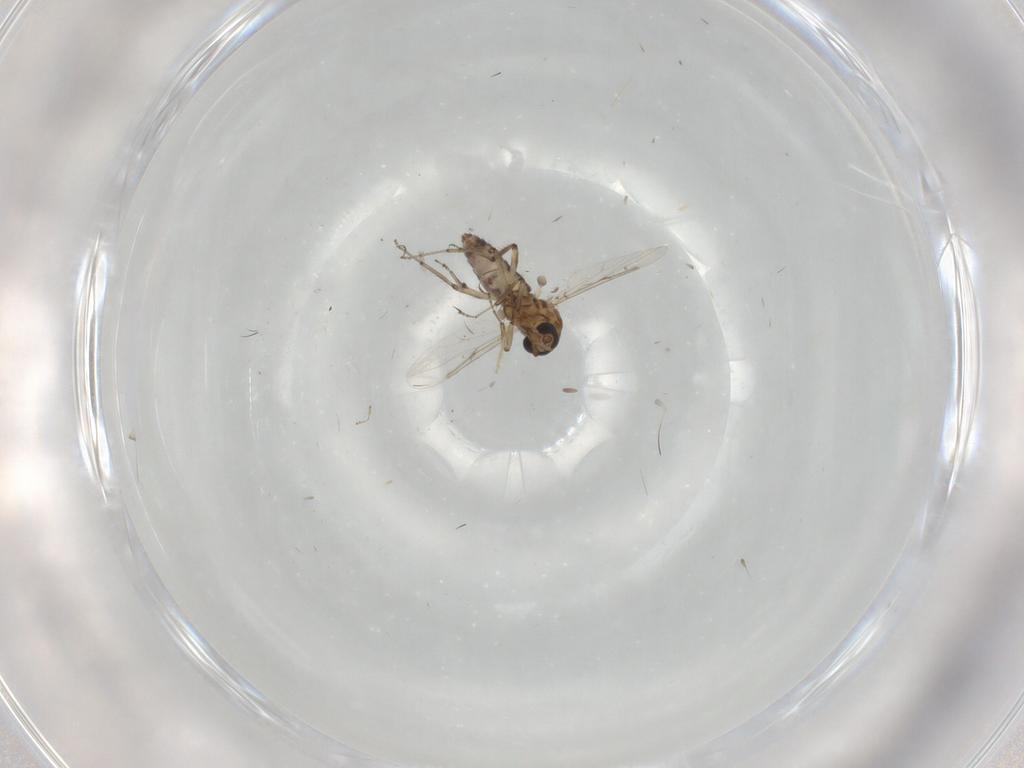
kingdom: Animalia
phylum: Arthropoda
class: Insecta
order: Diptera
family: Ceratopogonidae
